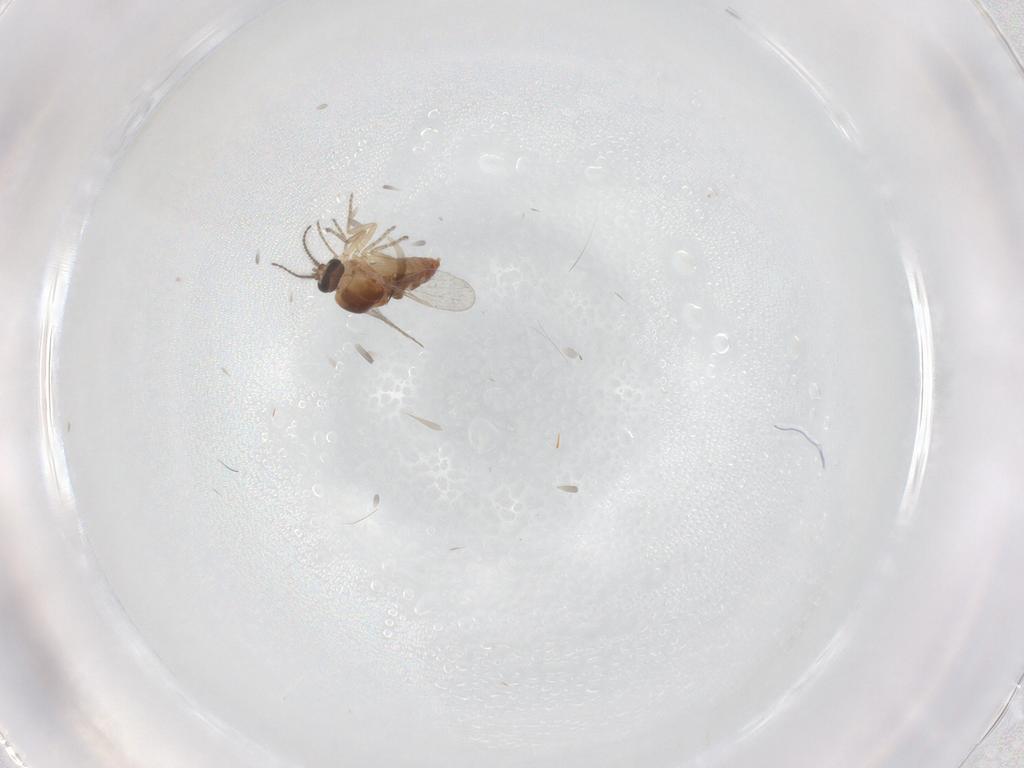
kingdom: Animalia
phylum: Arthropoda
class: Insecta
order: Diptera
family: Ceratopogonidae
